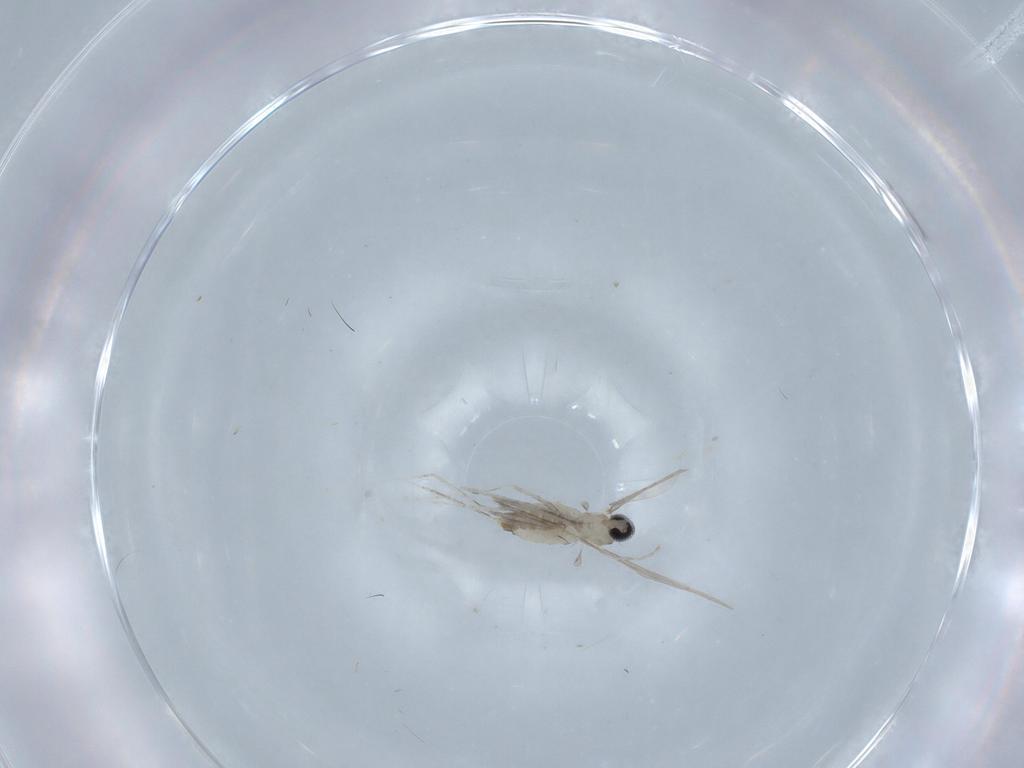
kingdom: Animalia
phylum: Arthropoda
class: Insecta
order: Diptera
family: Cecidomyiidae
